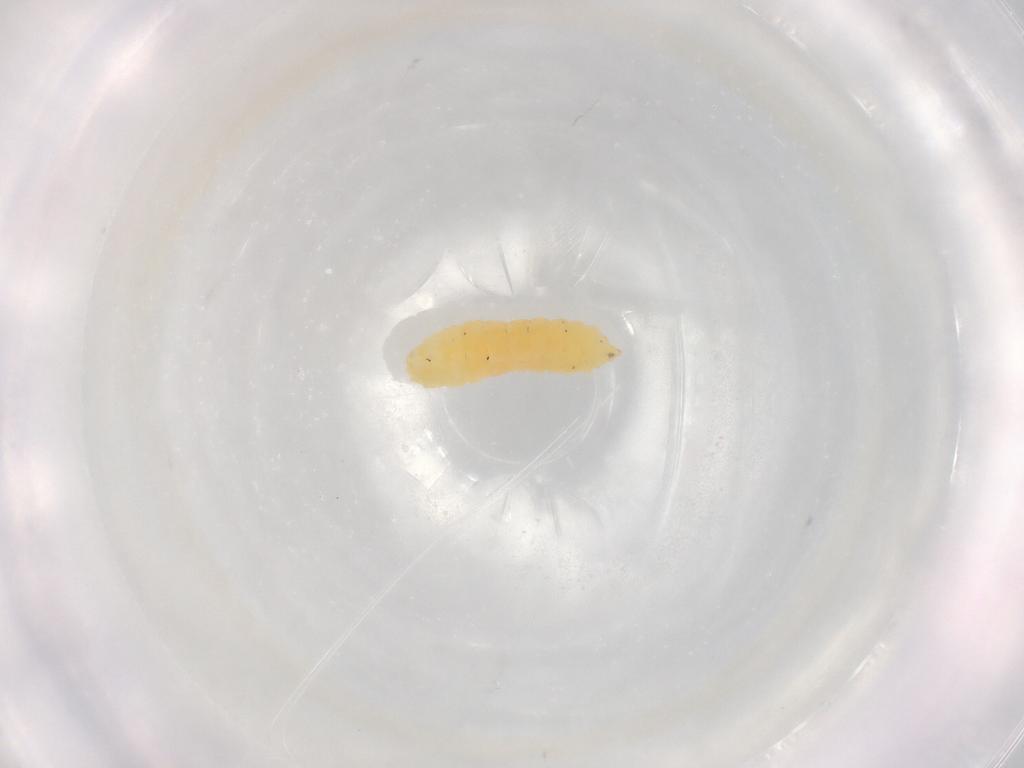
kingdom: Animalia
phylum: Arthropoda
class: Insecta
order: Diptera
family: Cecidomyiidae
